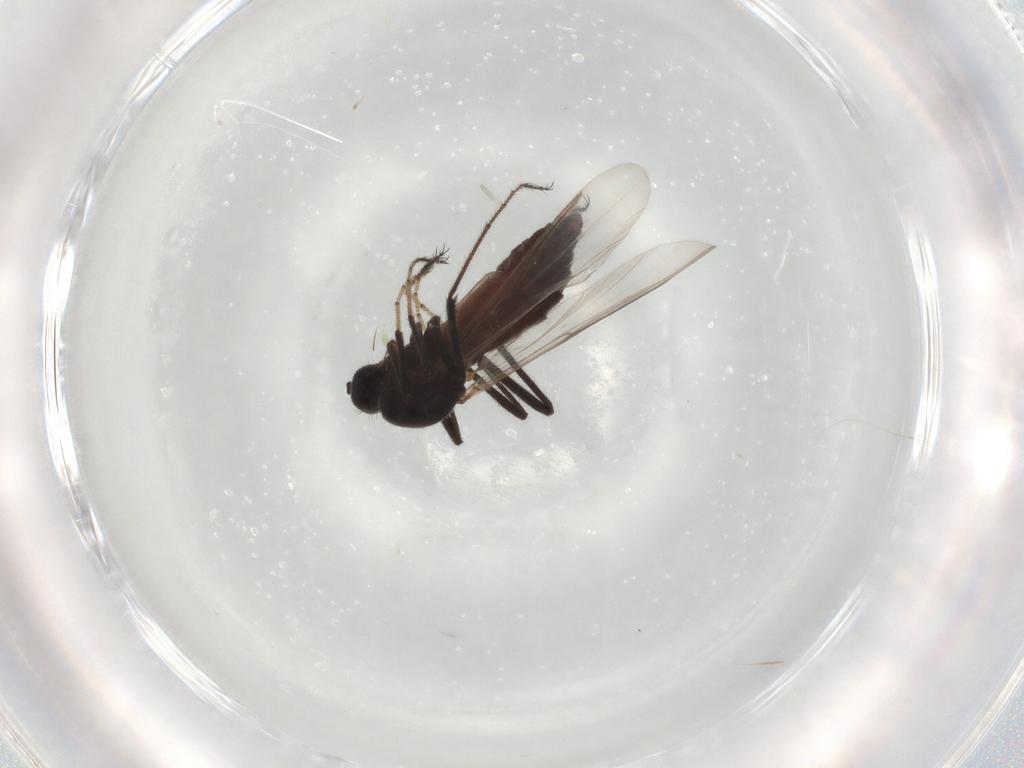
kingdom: Animalia
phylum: Arthropoda
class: Insecta
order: Diptera
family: Ceratopogonidae
